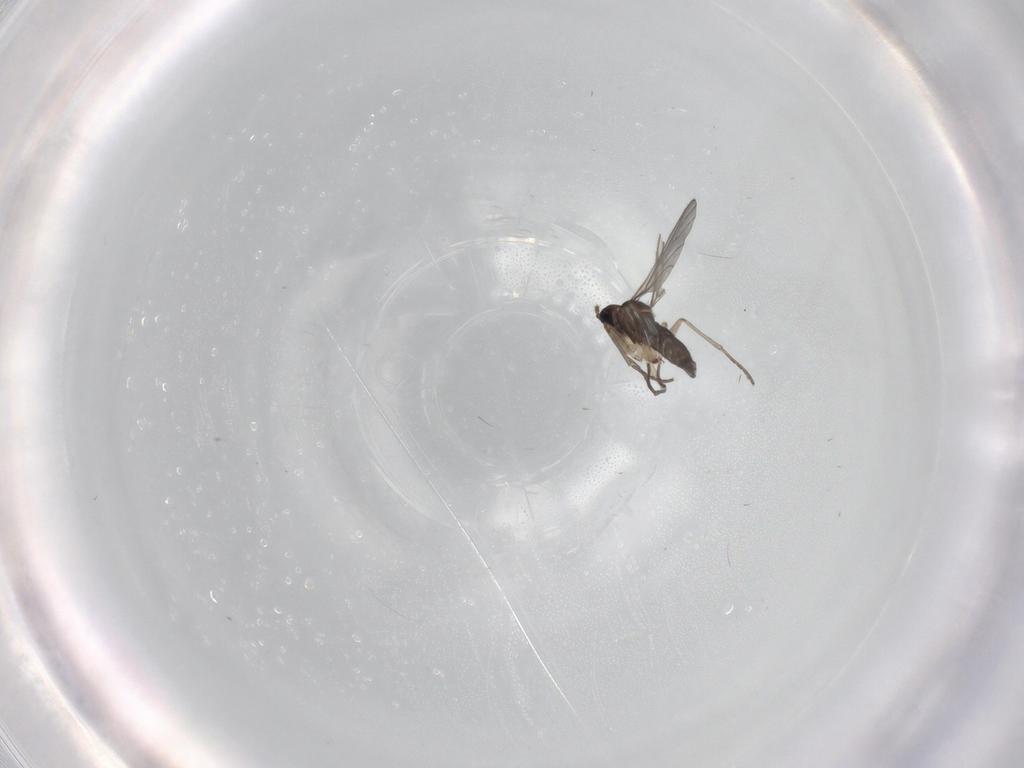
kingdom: Animalia
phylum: Arthropoda
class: Insecta
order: Diptera
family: Sciaridae
